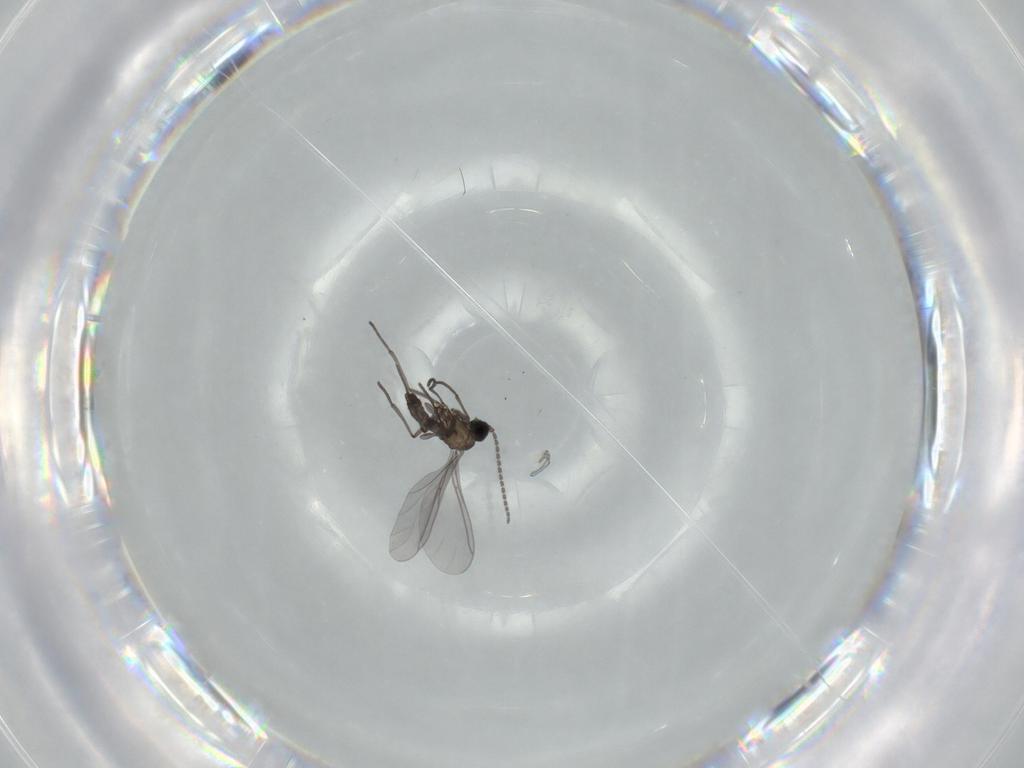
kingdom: Animalia
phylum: Arthropoda
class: Insecta
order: Diptera
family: Sciaridae
